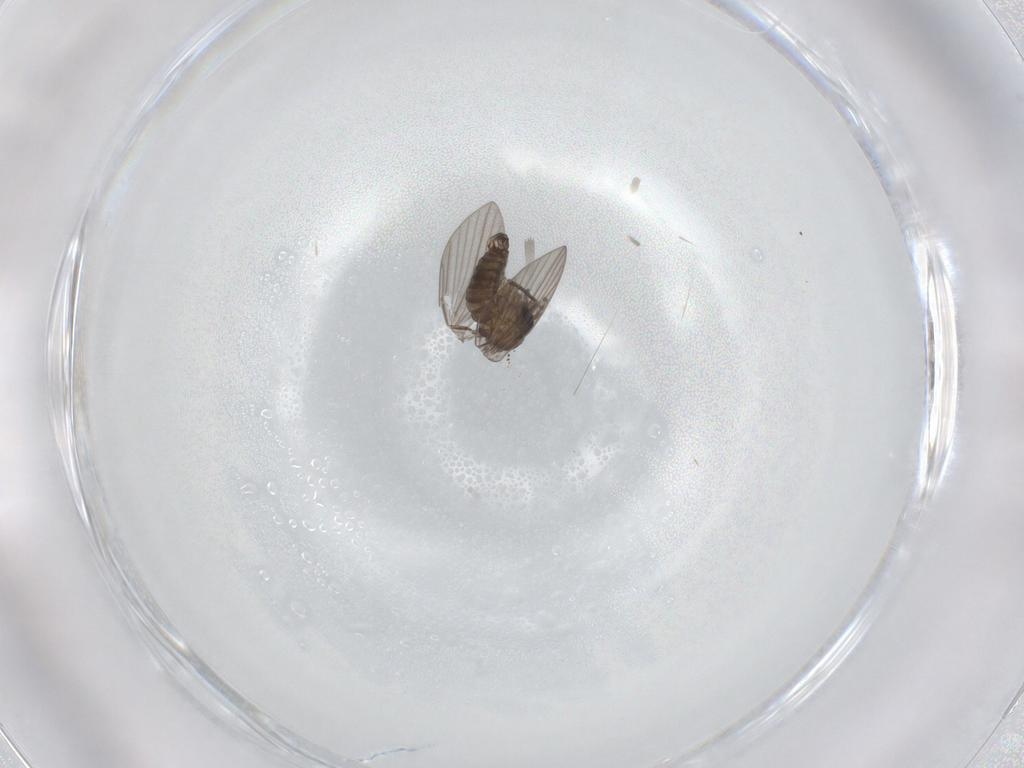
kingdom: Animalia
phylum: Arthropoda
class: Insecta
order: Diptera
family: Psychodidae
